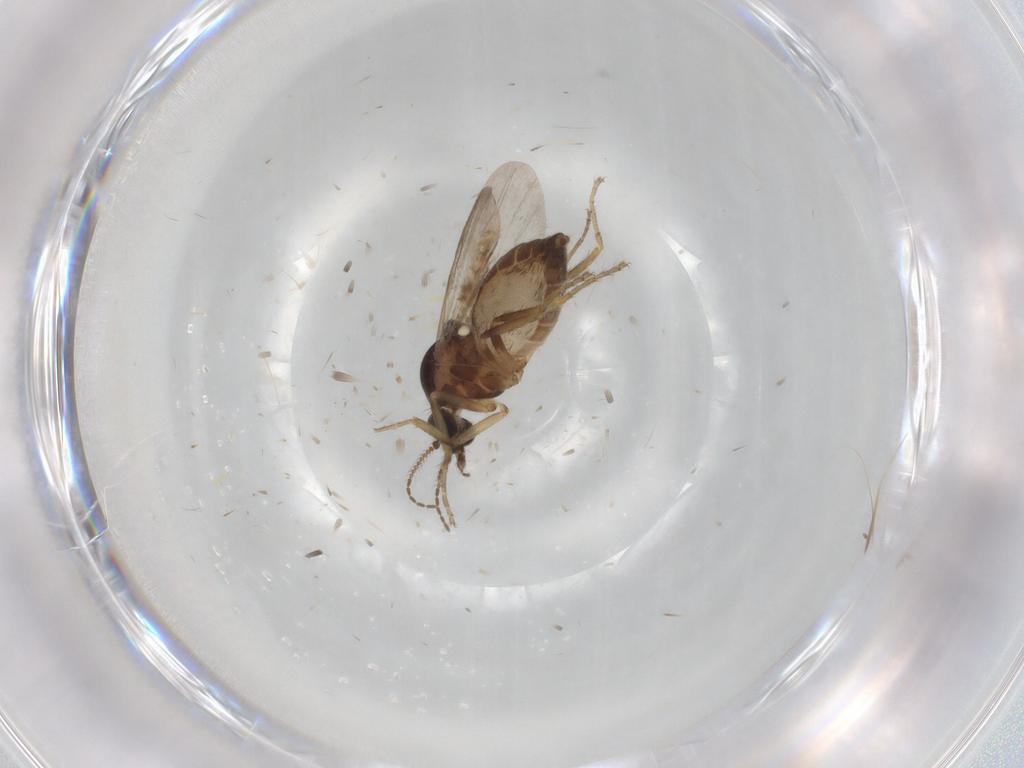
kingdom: Animalia
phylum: Arthropoda
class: Insecta
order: Diptera
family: Ceratopogonidae
